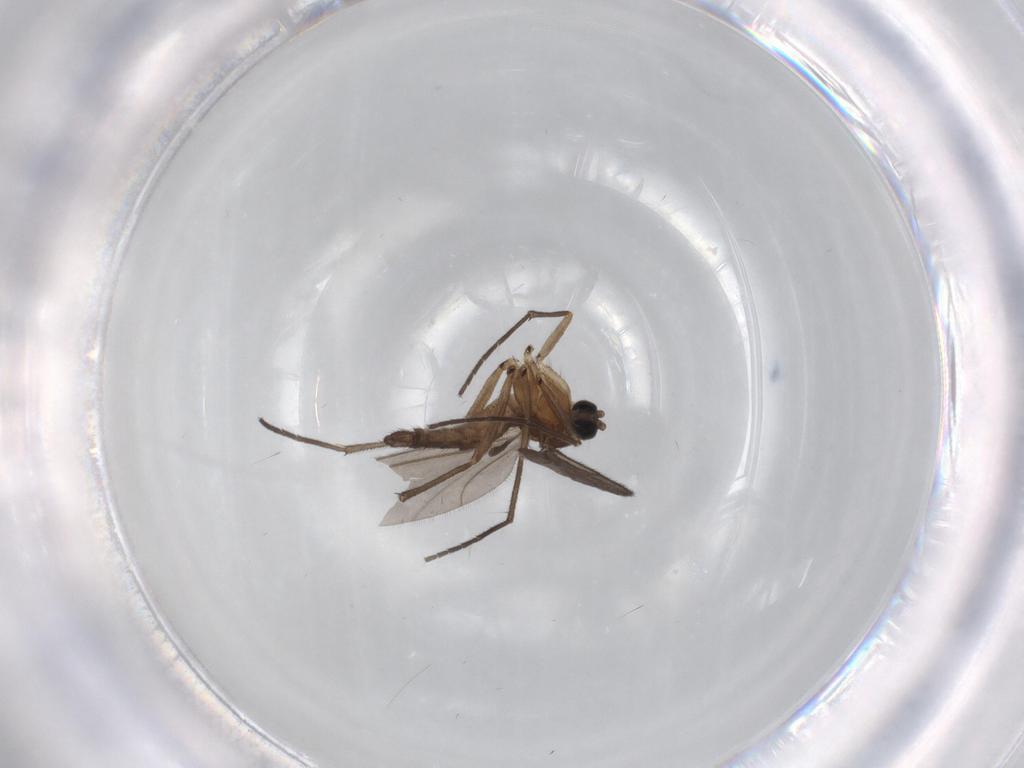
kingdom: Animalia
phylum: Arthropoda
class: Insecta
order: Diptera
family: Sciaridae
